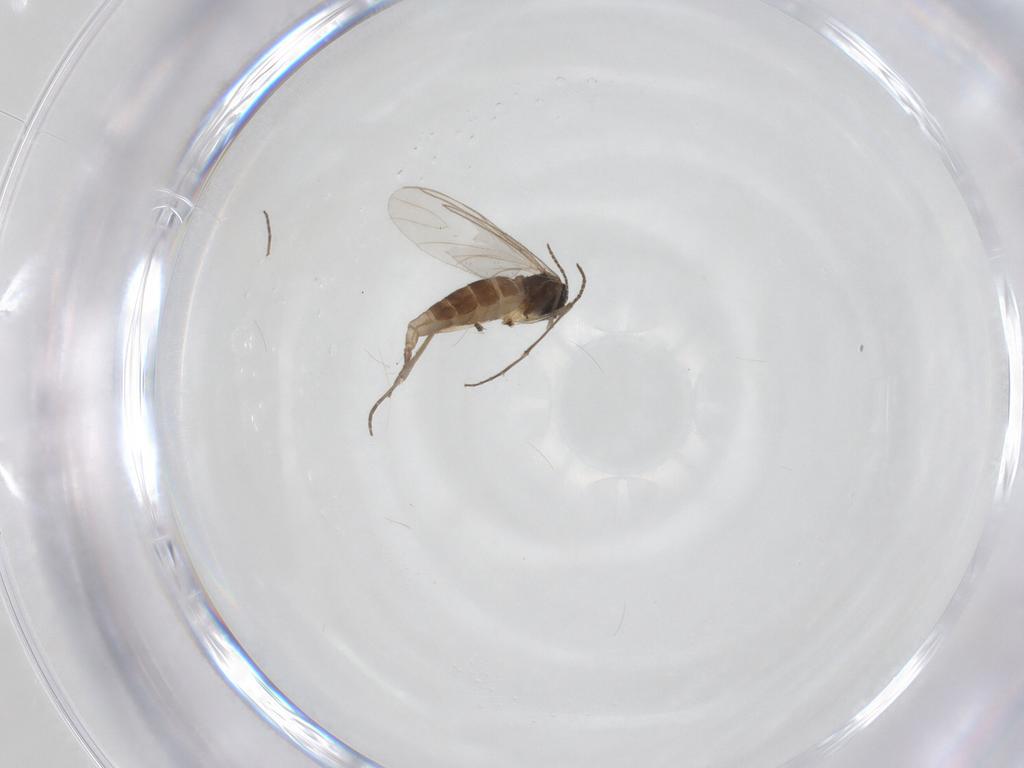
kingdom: Animalia
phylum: Arthropoda
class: Insecta
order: Diptera
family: Sciaridae
